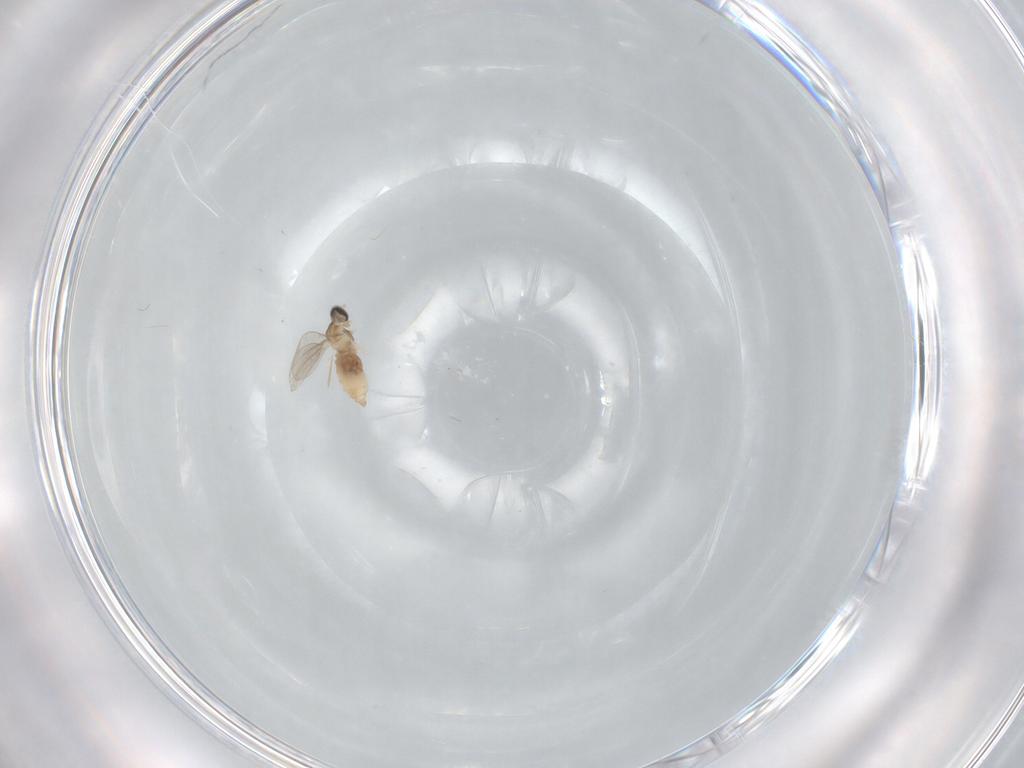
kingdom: Animalia
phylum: Arthropoda
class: Insecta
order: Diptera
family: Cecidomyiidae
